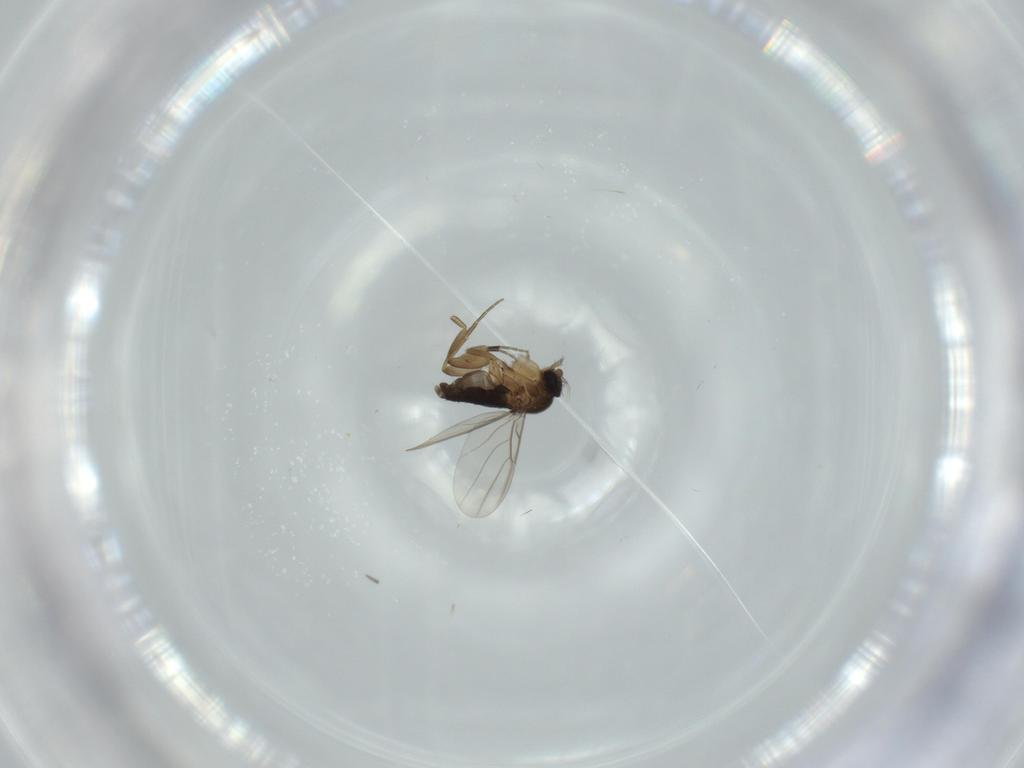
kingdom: Animalia
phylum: Arthropoda
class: Insecta
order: Diptera
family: Phoridae
